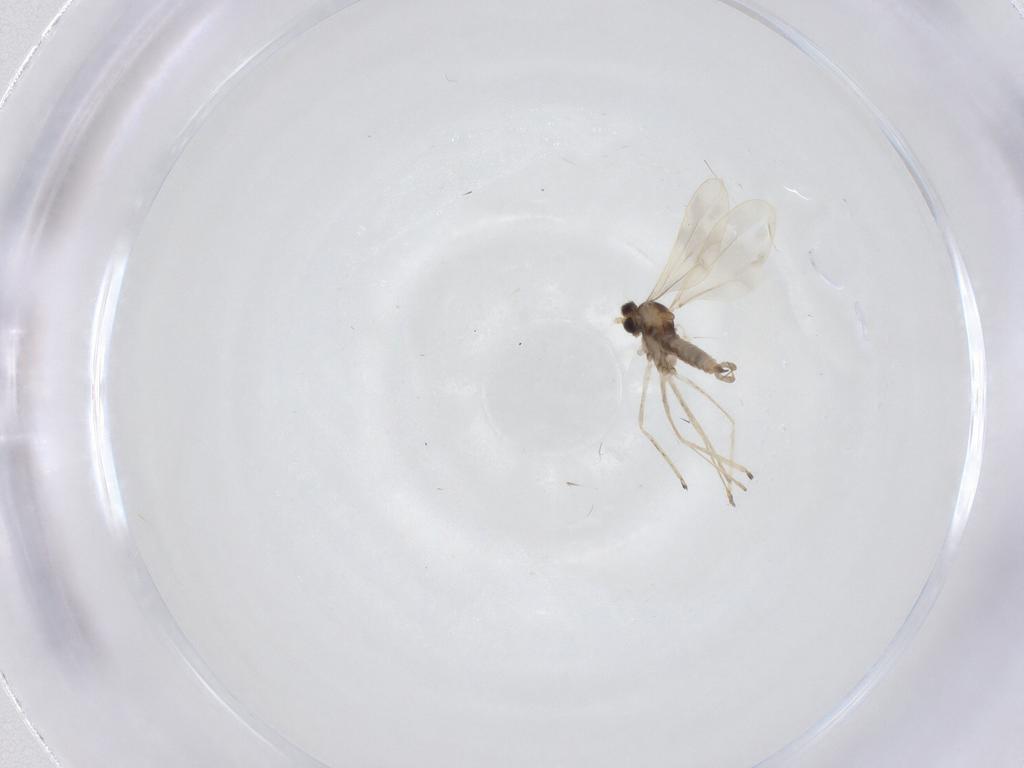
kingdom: Animalia
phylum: Arthropoda
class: Insecta
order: Diptera
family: Cecidomyiidae
